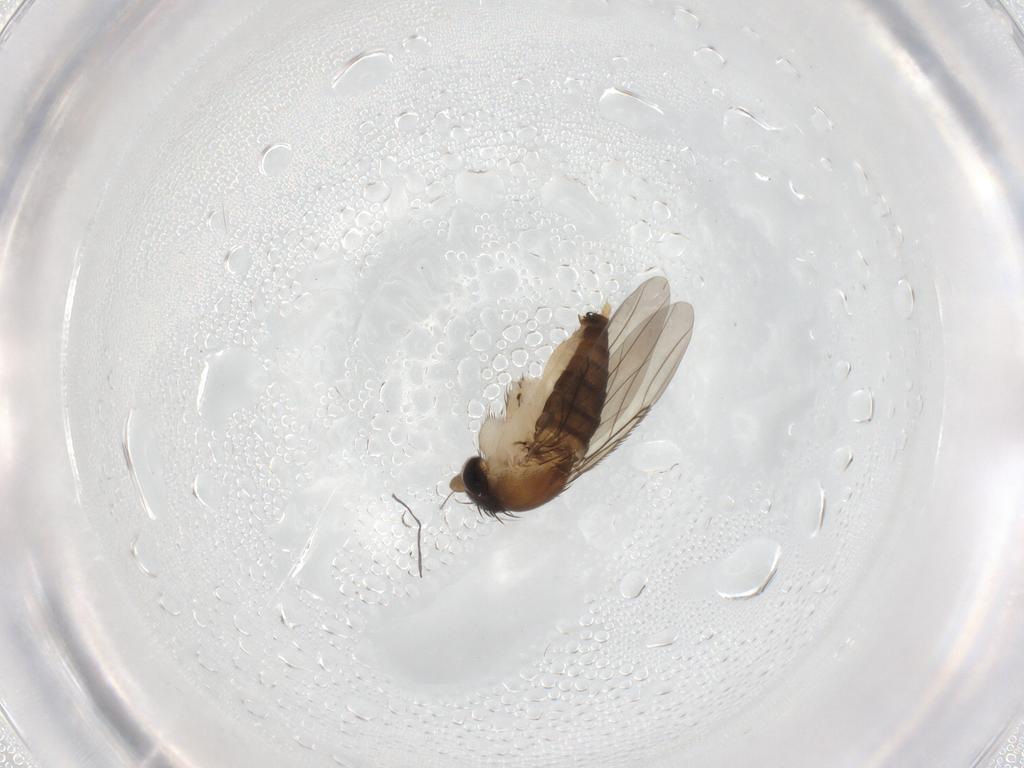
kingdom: Animalia
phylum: Arthropoda
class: Insecta
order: Diptera
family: Phoridae
